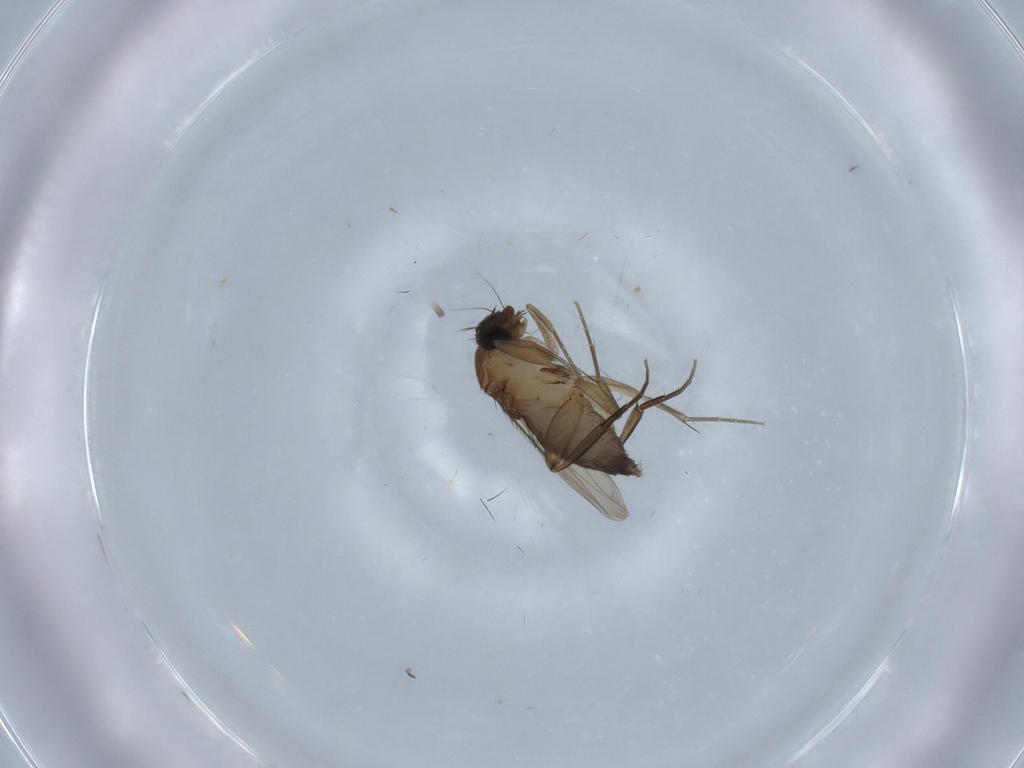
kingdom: Animalia
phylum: Arthropoda
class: Insecta
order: Diptera
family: Phoridae
